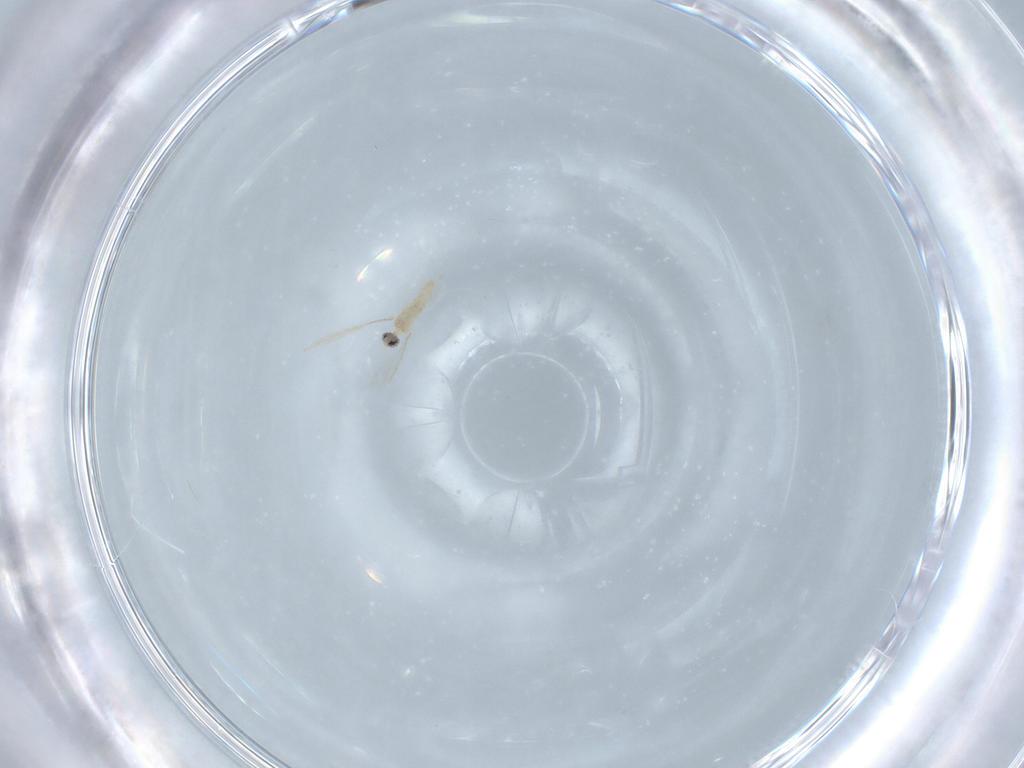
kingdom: Animalia
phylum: Arthropoda
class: Insecta
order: Diptera
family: Cecidomyiidae
